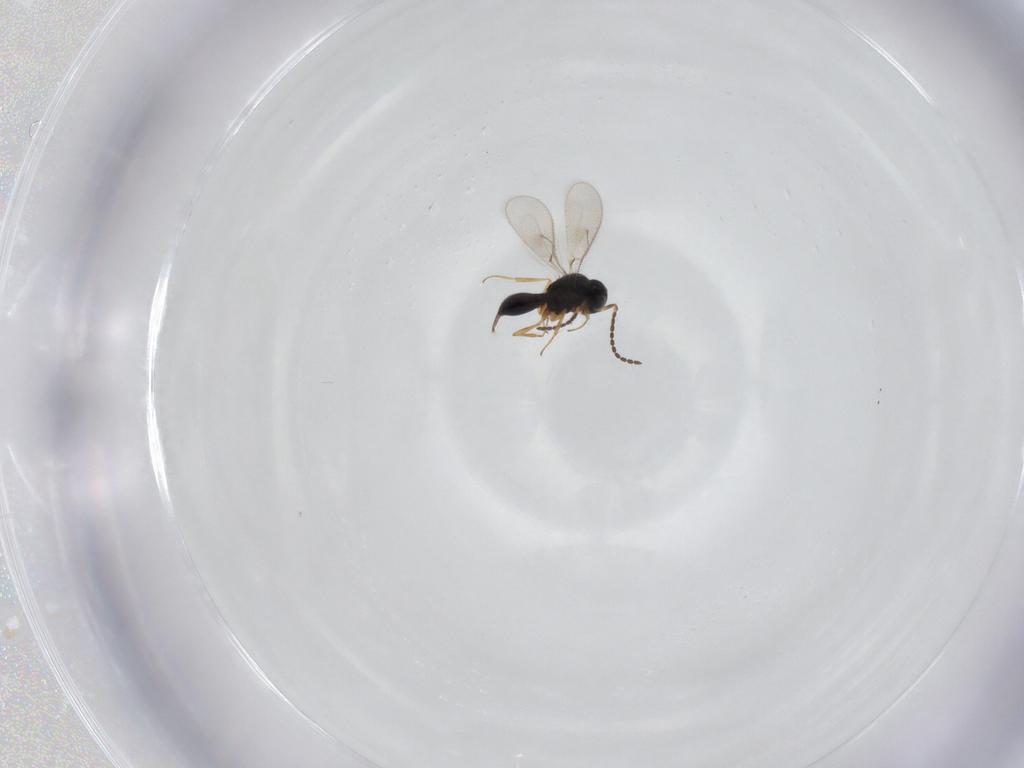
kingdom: Animalia
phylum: Arthropoda
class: Insecta
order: Hymenoptera
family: Scelionidae
